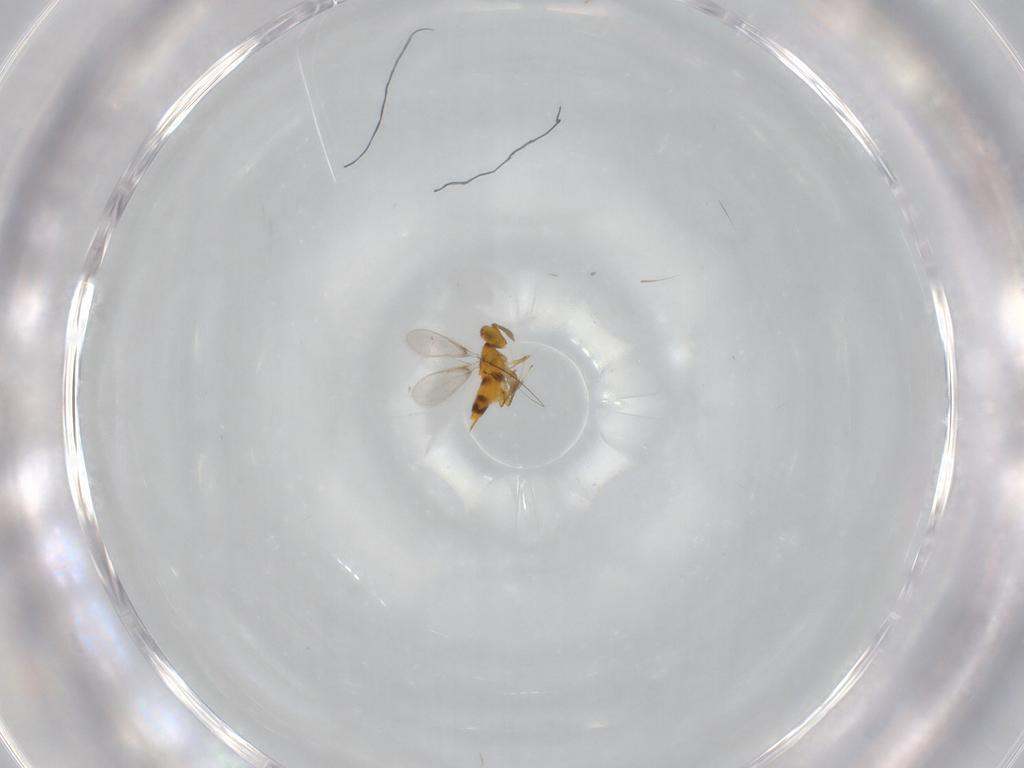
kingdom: Animalia
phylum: Arthropoda
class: Insecta
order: Hymenoptera
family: Aphelinidae
